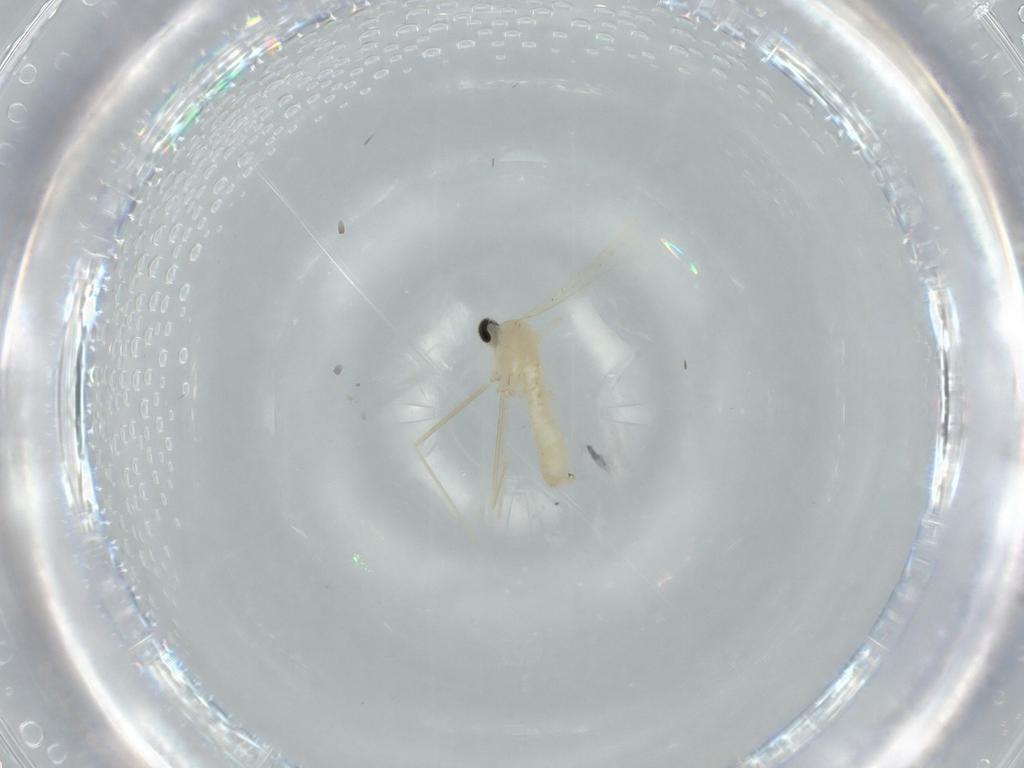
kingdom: Animalia
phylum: Arthropoda
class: Insecta
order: Diptera
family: Cecidomyiidae
